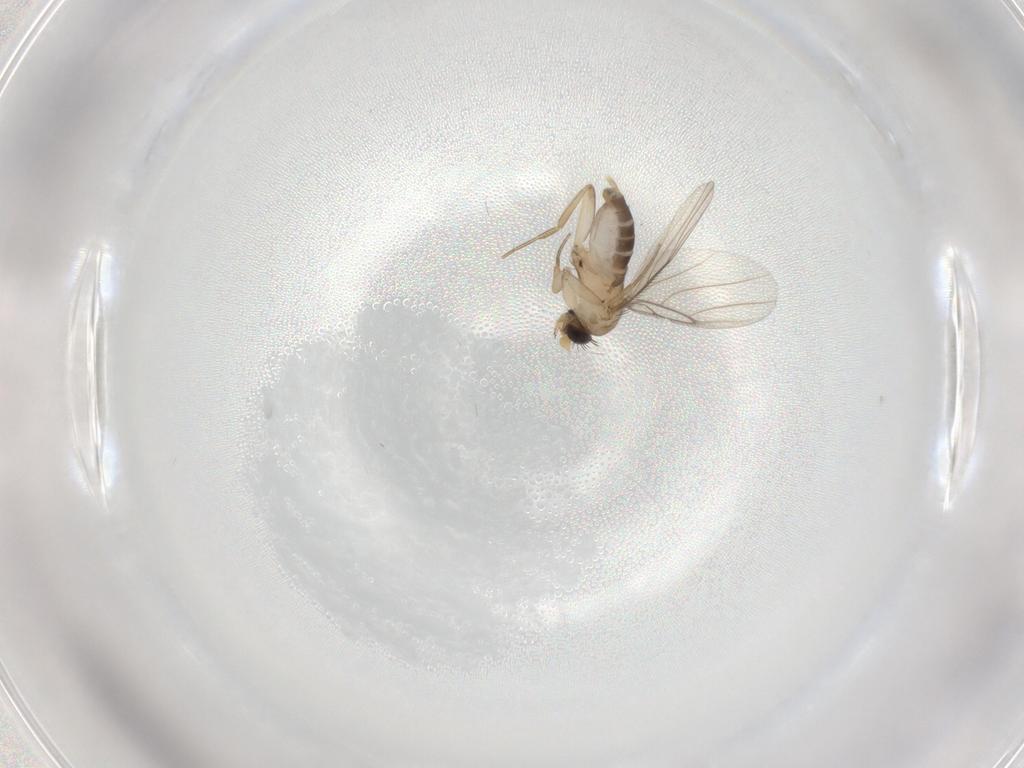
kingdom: Animalia
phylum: Arthropoda
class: Insecta
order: Diptera
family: Phoridae
